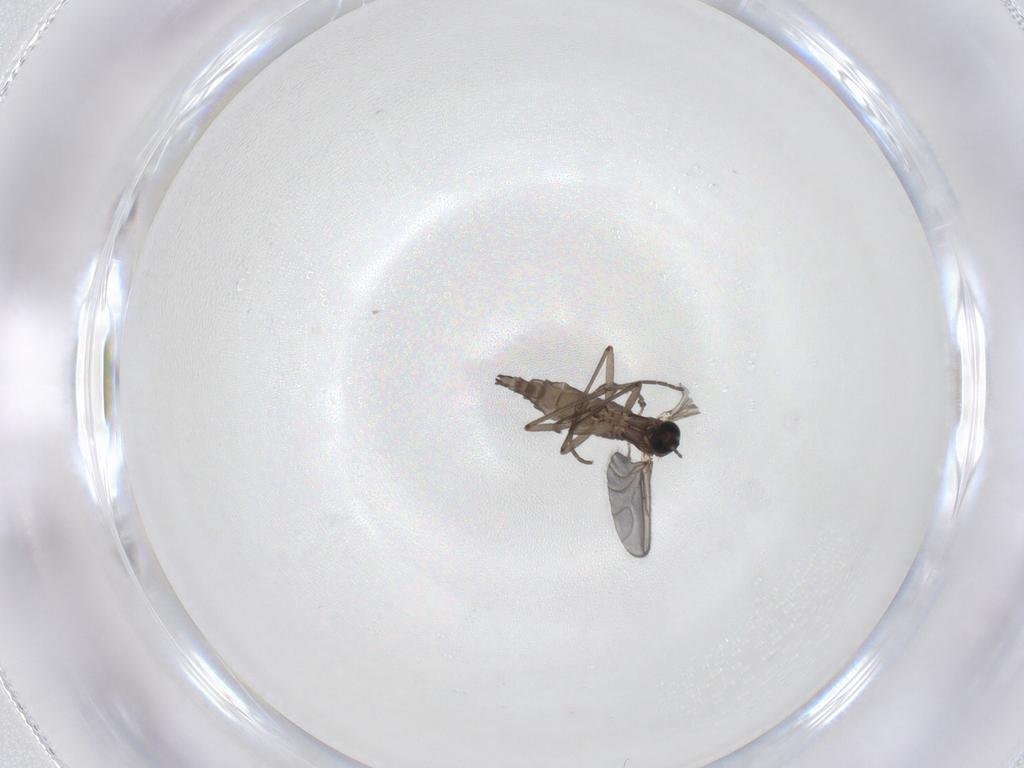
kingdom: Animalia
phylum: Arthropoda
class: Insecta
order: Diptera
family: Sciaridae
